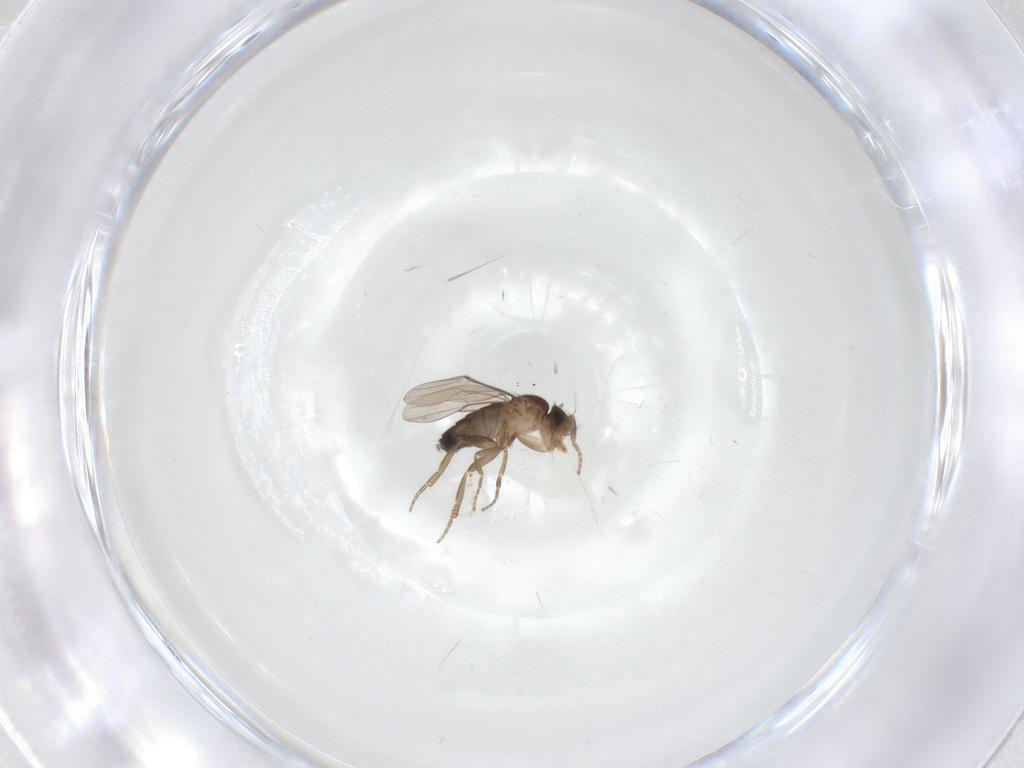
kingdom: Animalia
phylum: Arthropoda
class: Insecta
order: Diptera
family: Phoridae
